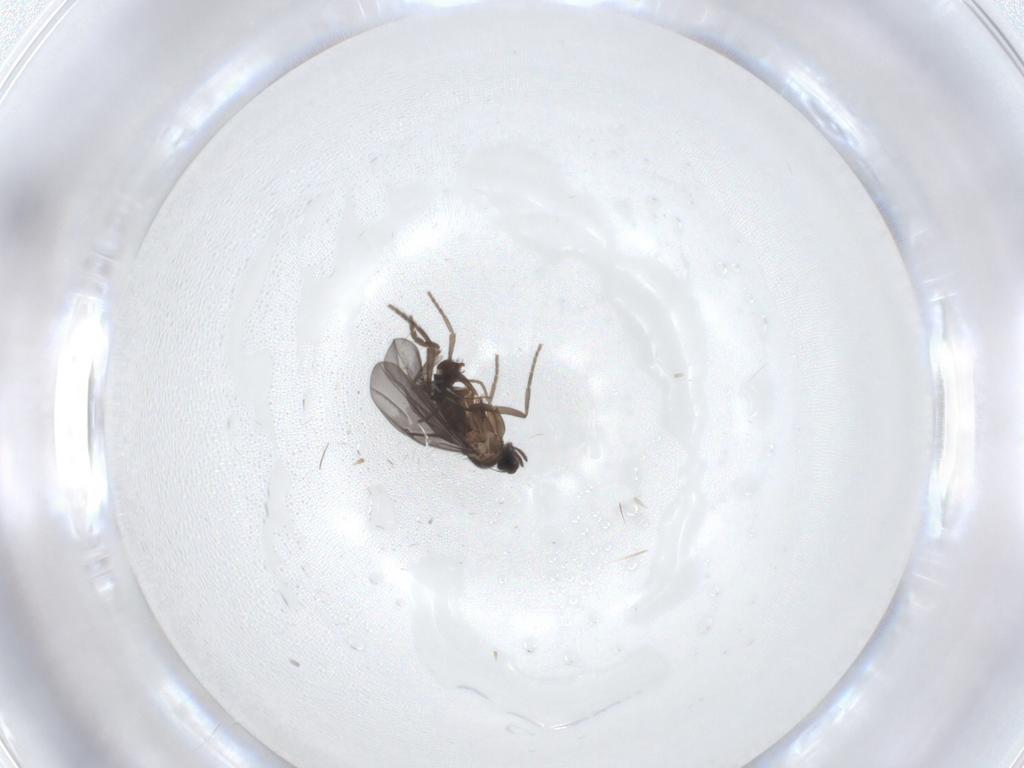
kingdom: Animalia
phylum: Arthropoda
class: Insecta
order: Diptera
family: Phoridae
